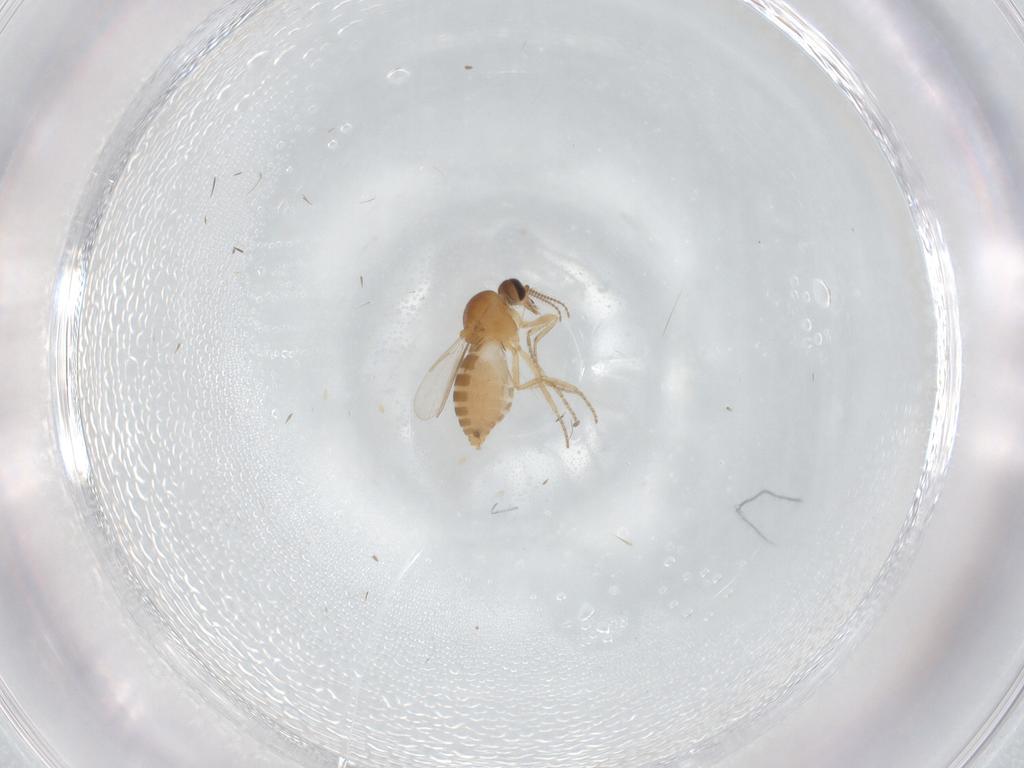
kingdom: Animalia
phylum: Arthropoda
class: Insecta
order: Diptera
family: Ceratopogonidae
